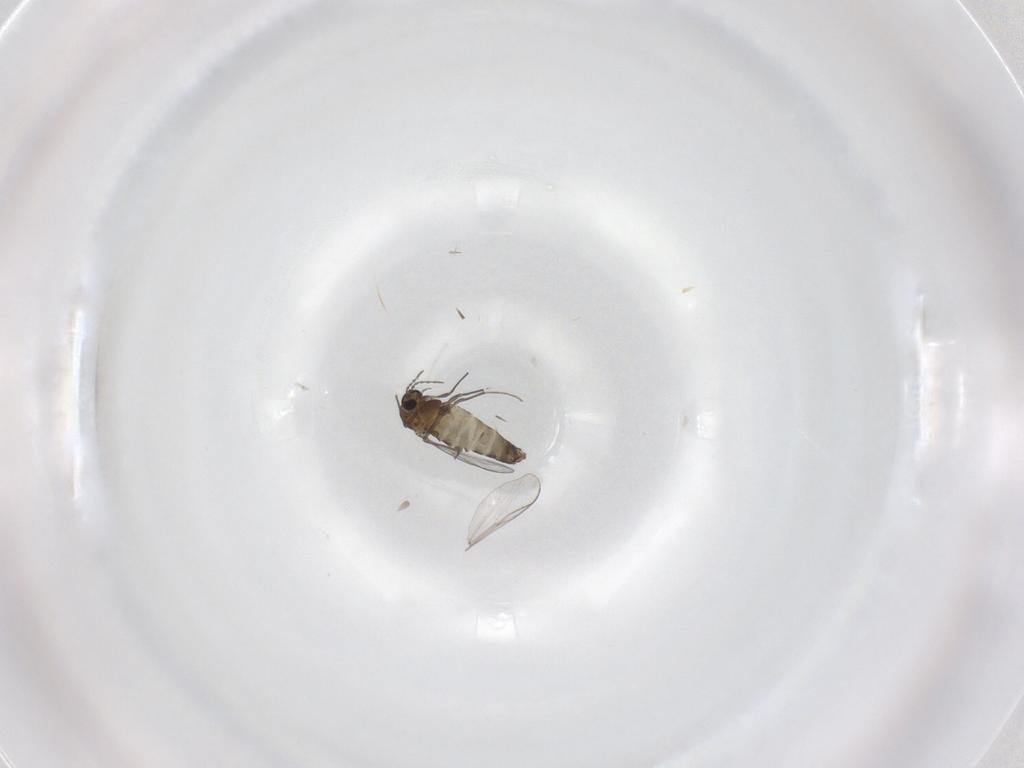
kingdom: Animalia
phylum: Arthropoda
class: Insecta
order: Diptera
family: Chironomidae
